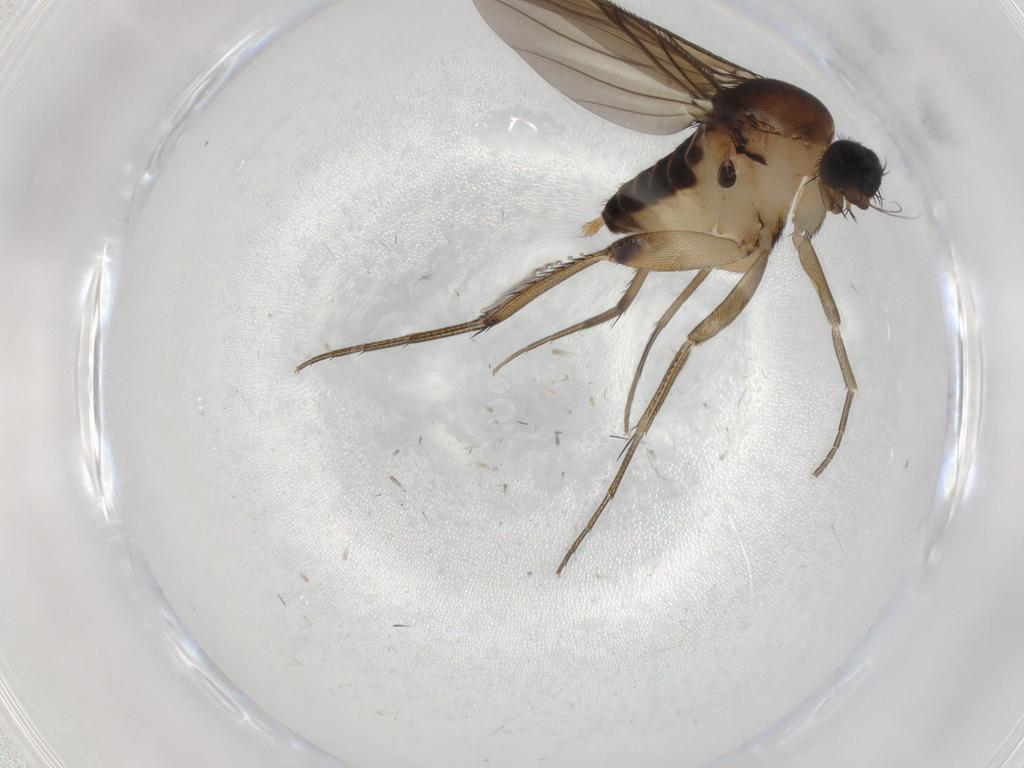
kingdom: Animalia
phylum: Arthropoda
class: Insecta
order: Diptera
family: Phoridae
